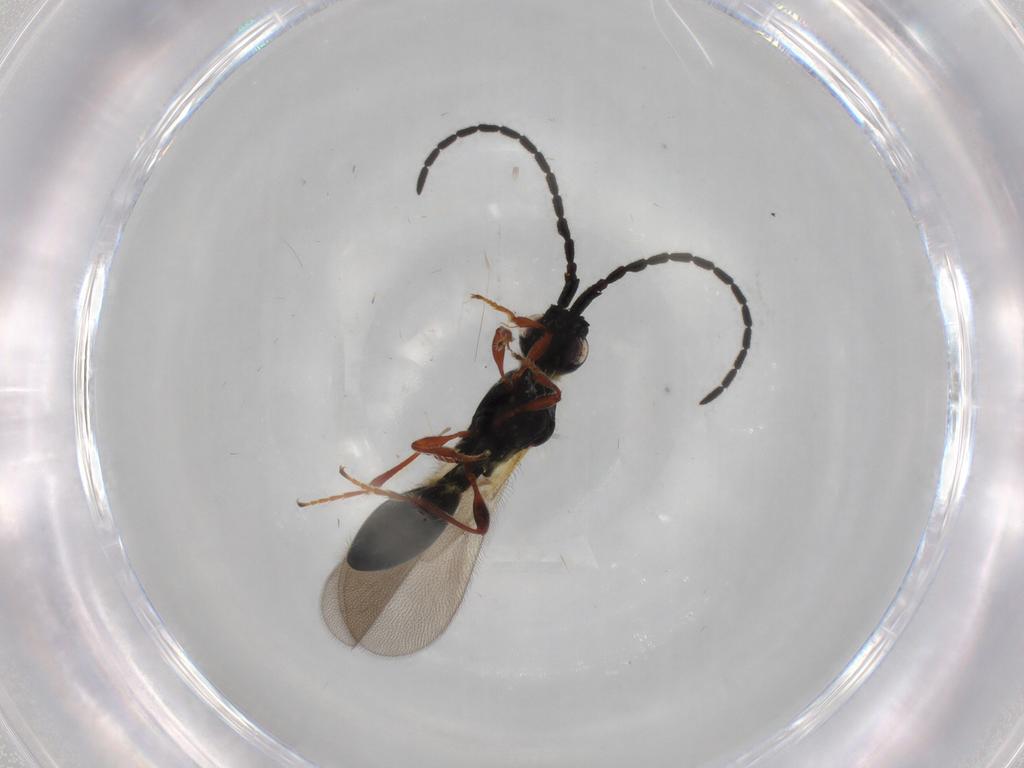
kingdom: Animalia
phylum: Arthropoda
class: Insecta
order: Hymenoptera
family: Diapriidae
